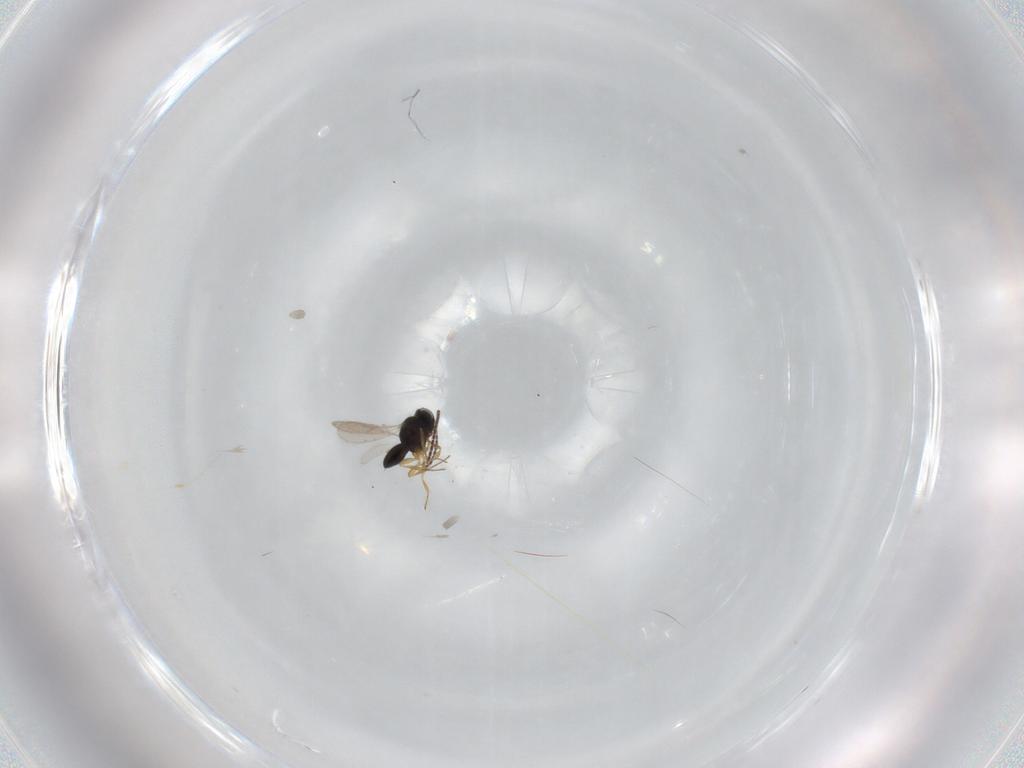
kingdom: Animalia
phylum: Arthropoda
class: Insecta
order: Hymenoptera
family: Scelionidae
